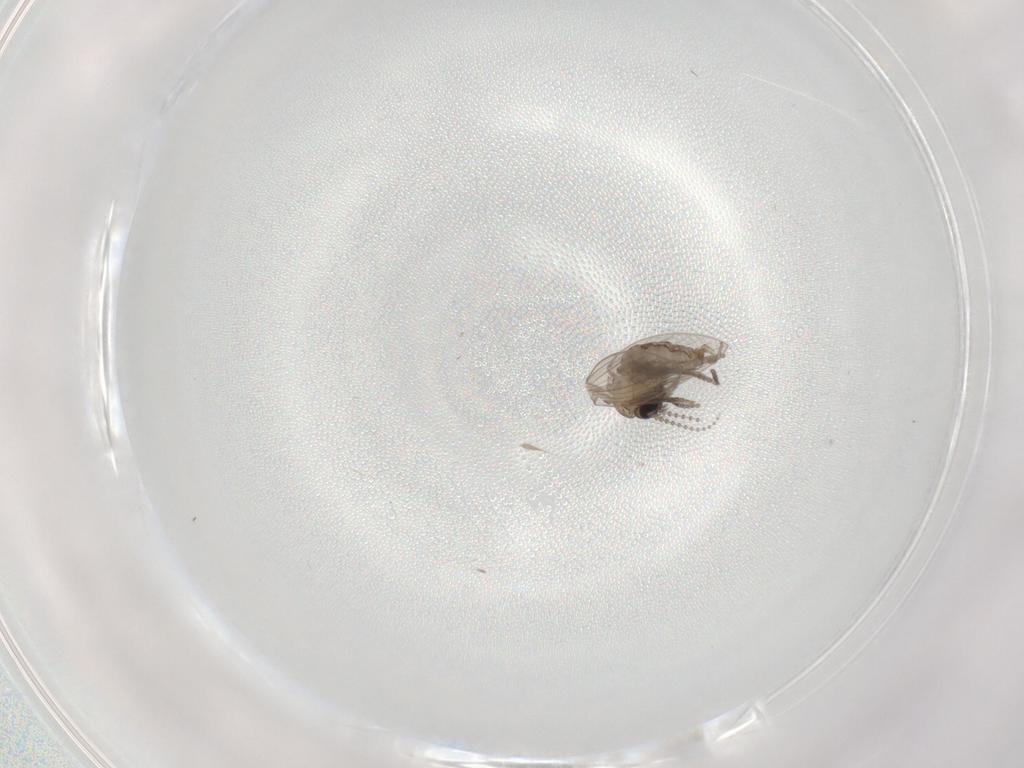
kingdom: Animalia
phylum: Arthropoda
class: Insecta
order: Diptera
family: Psychodidae
